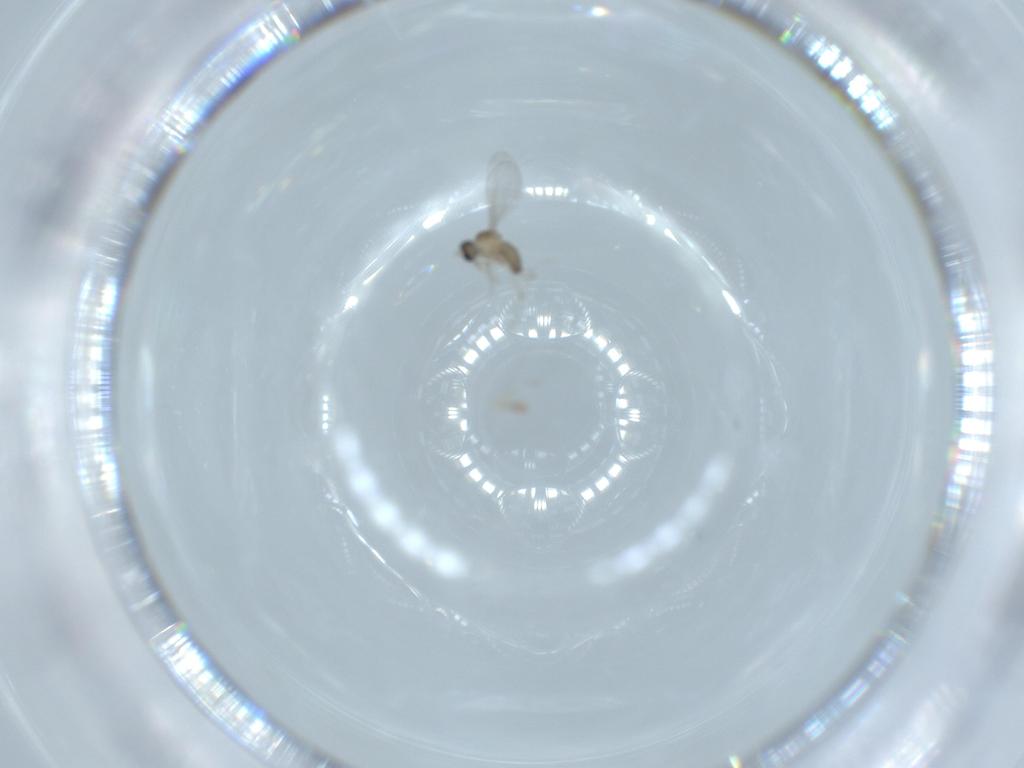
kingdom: Animalia
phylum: Arthropoda
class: Insecta
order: Diptera
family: Cecidomyiidae
